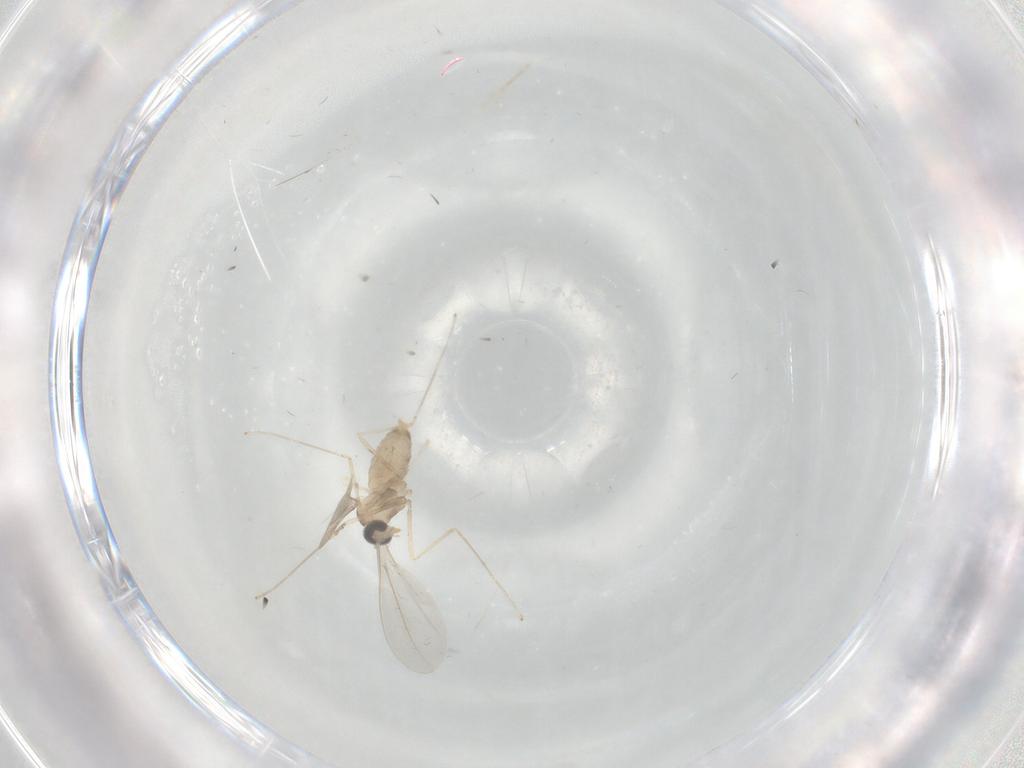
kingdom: Animalia
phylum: Arthropoda
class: Insecta
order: Diptera
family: Cecidomyiidae
